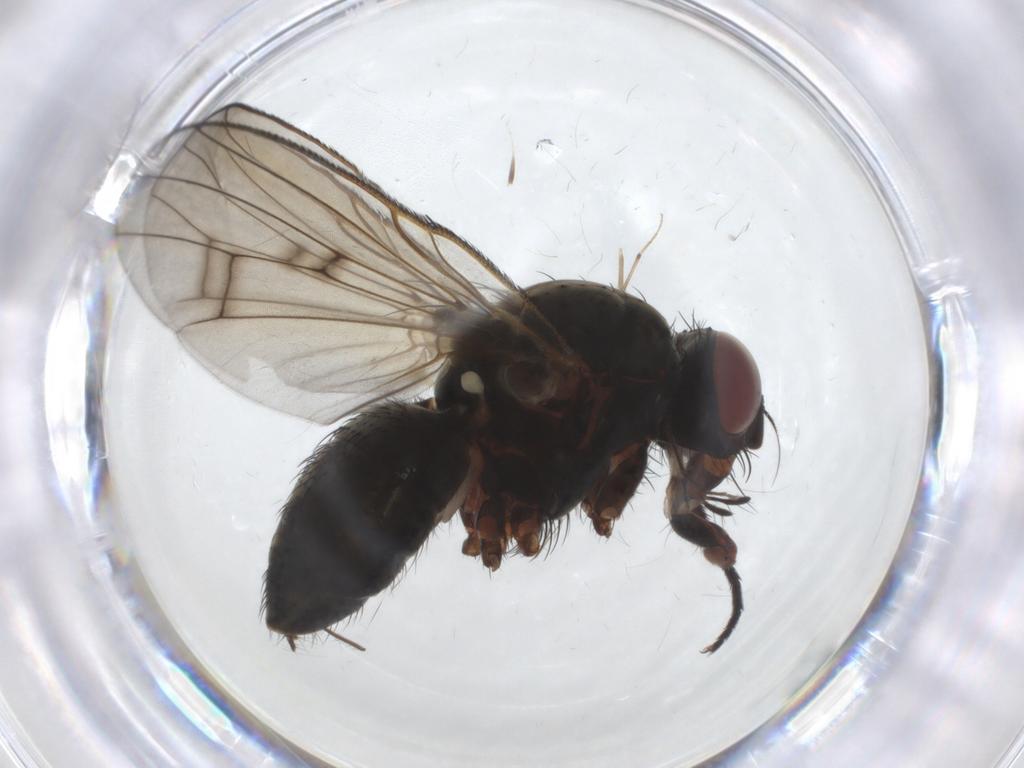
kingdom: Animalia
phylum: Arthropoda
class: Insecta
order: Diptera
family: Anthomyiidae
